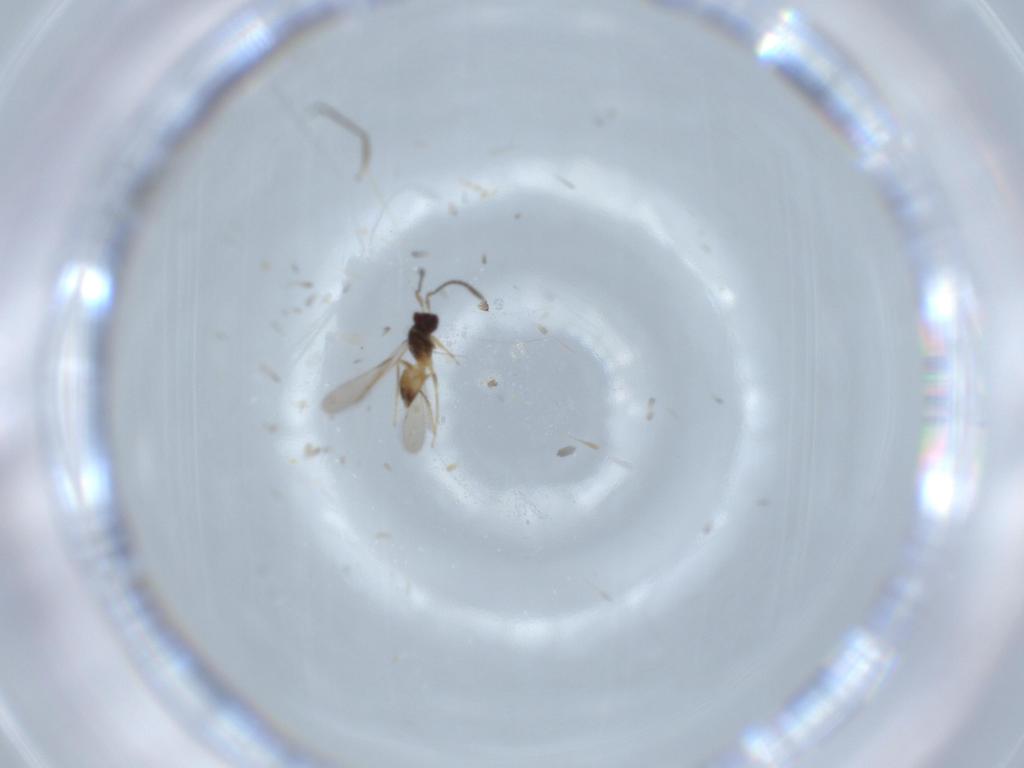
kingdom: Animalia
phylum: Arthropoda
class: Insecta
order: Hymenoptera
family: Mymaridae
